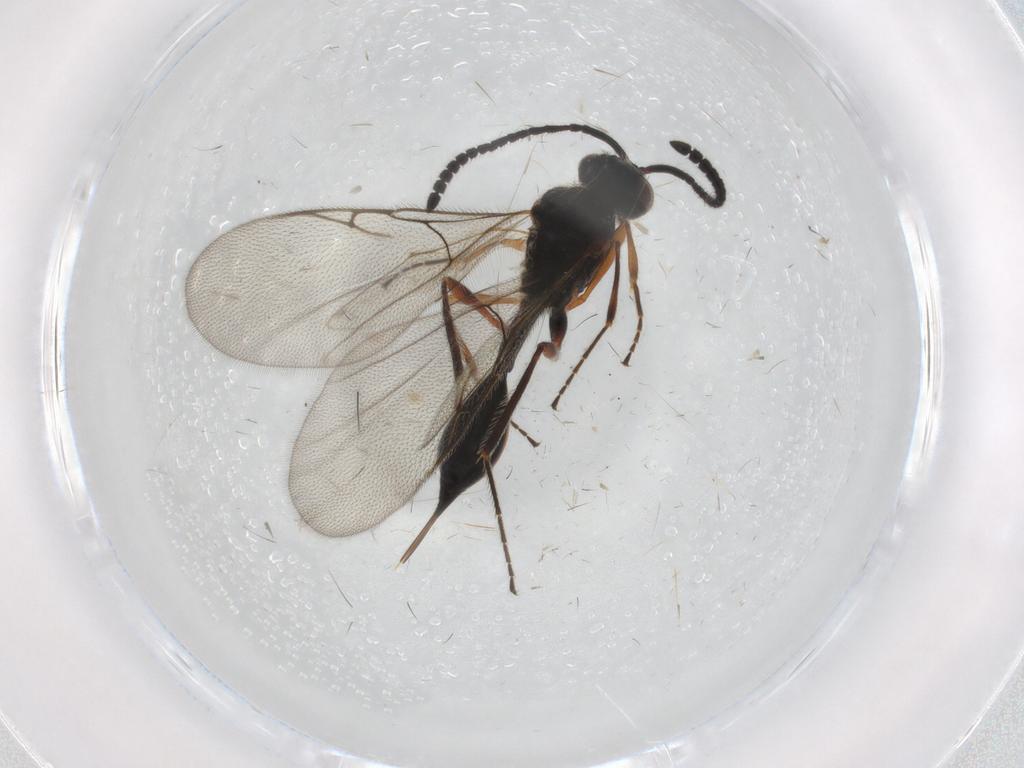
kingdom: Animalia
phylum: Arthropoda
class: Insecta
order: Hymenoptera
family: Diapriidae
